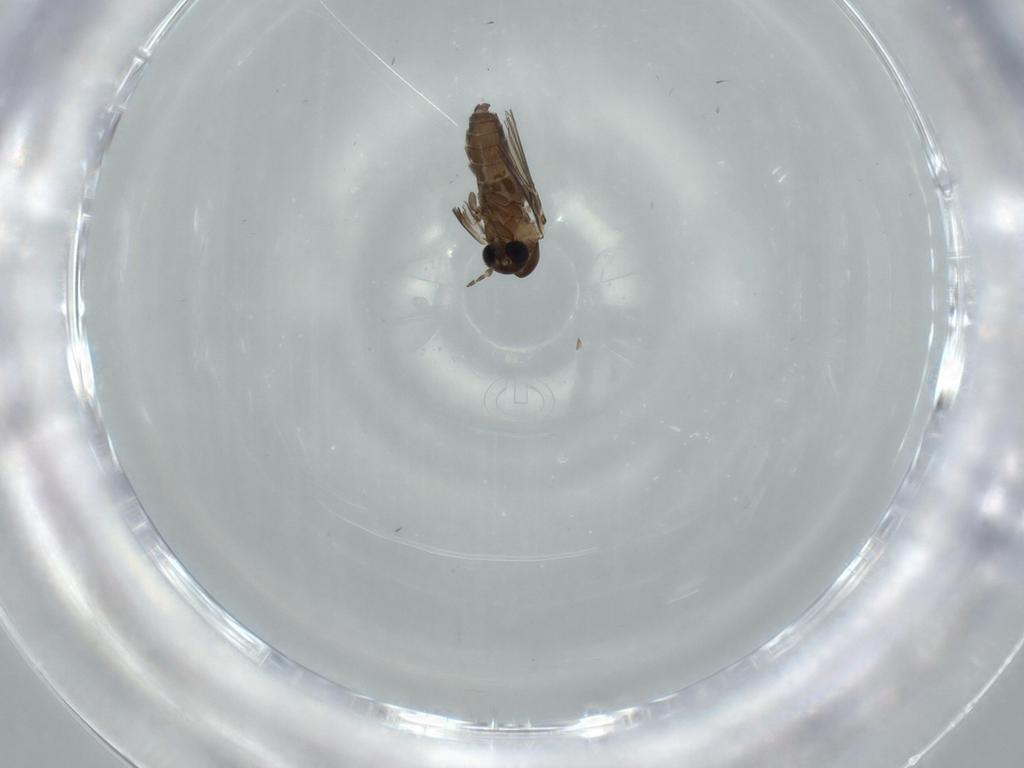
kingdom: Animalia
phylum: Arthropoda
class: Insecta
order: Diptera
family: Psychodidae
